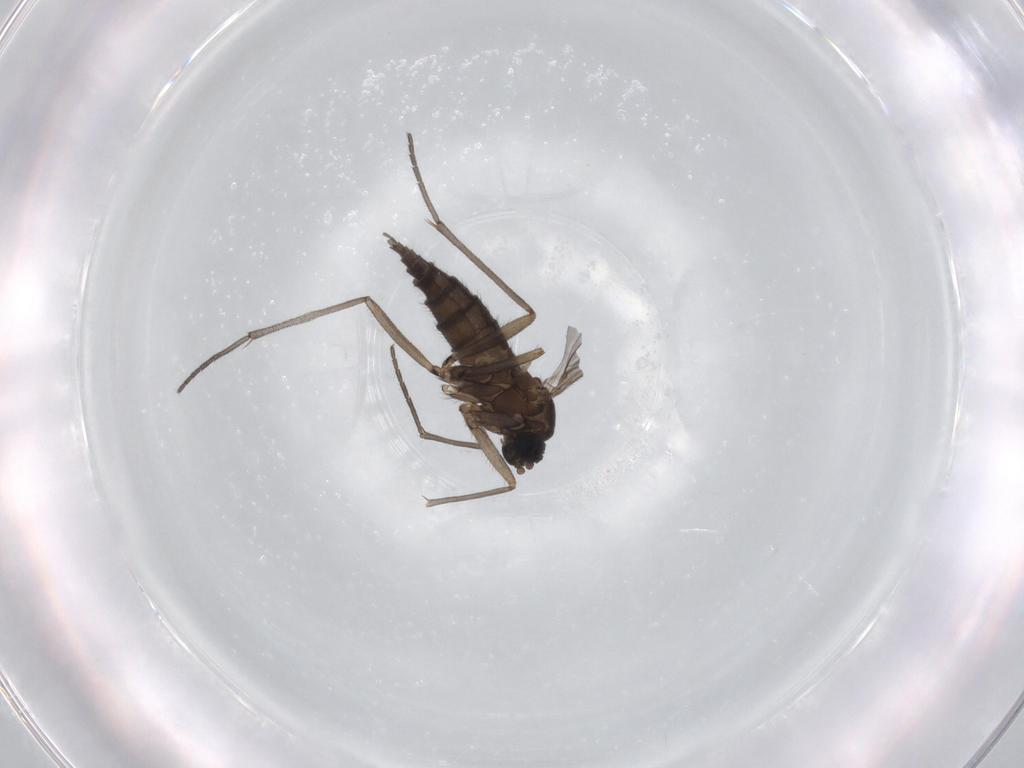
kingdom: Animalia
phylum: Arthropoda
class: Insecta
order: Diptera
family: Sciaridae
